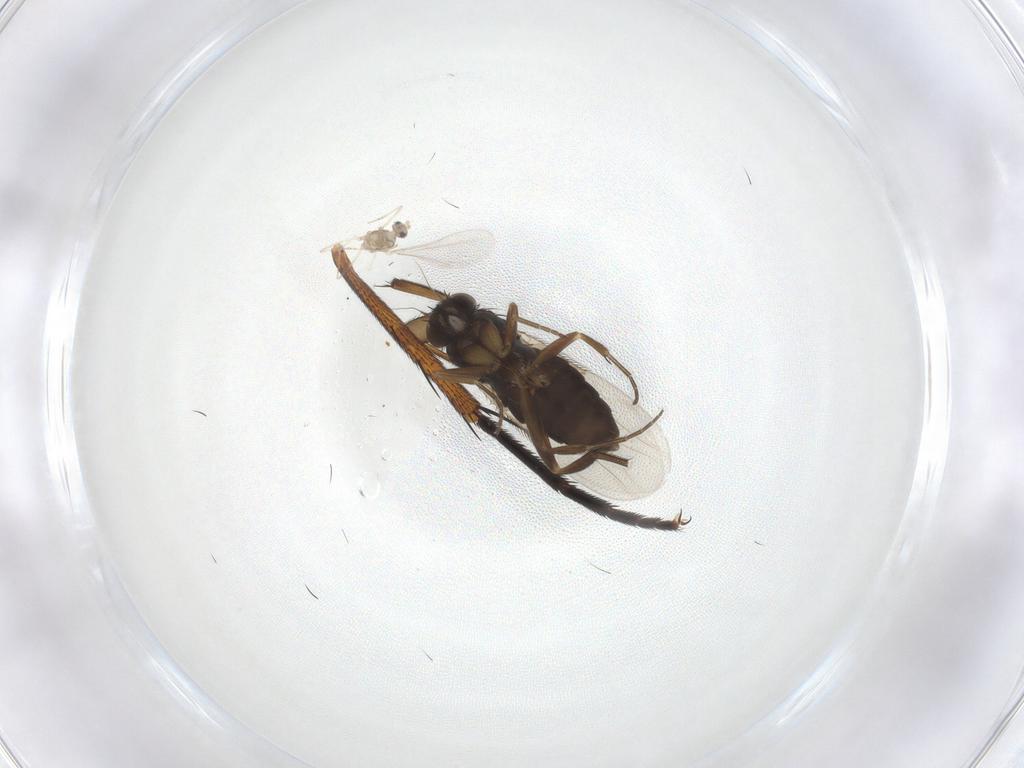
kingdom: Animalia
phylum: Arthropoda
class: Insecta
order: Diptera
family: Cecidomyiidae
